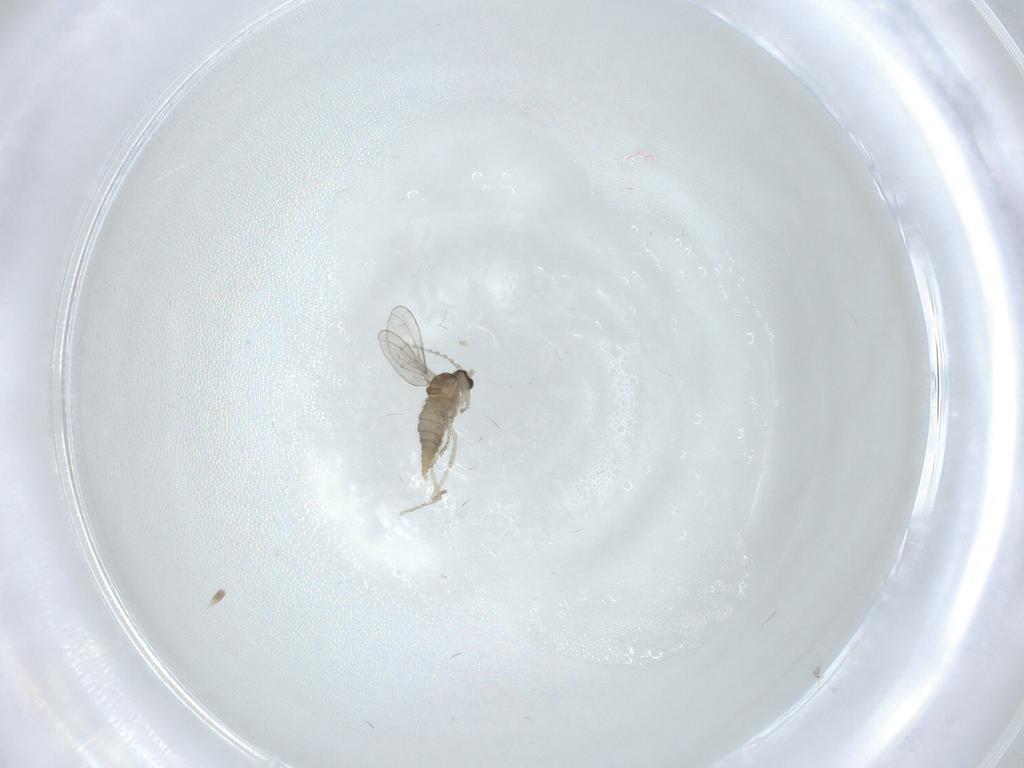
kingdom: Animalia
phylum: Arthropoda
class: Insecta
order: Diptera
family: Cecidomyiidae
